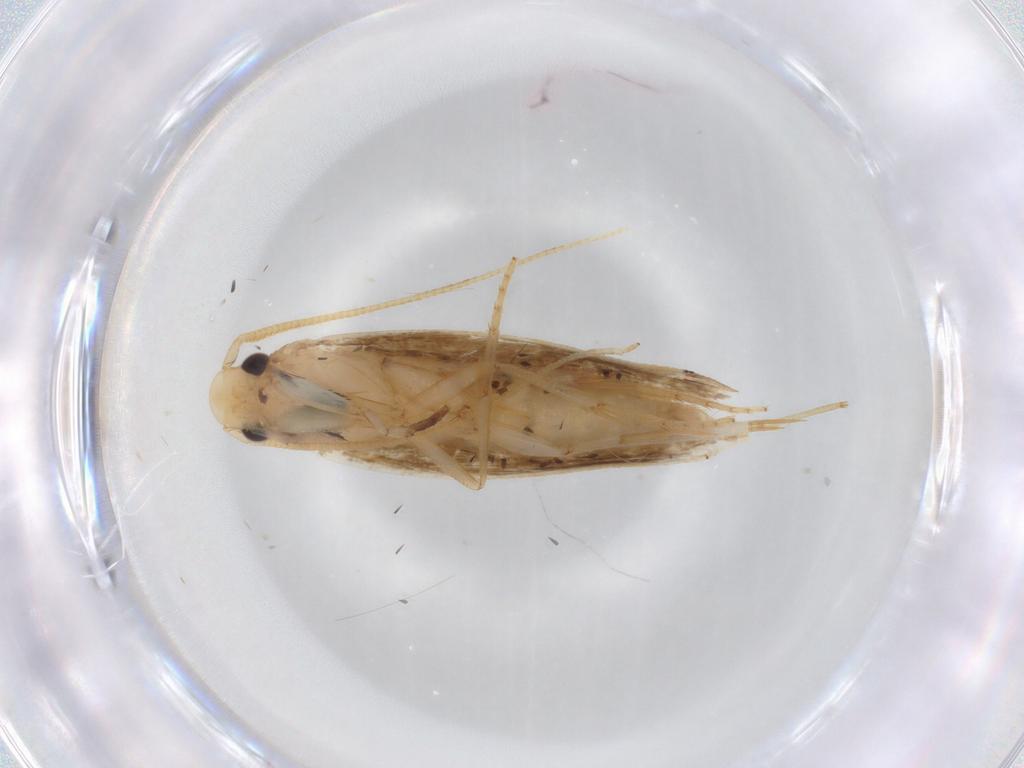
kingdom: Animalia
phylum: Arthropoda
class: Insecta
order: Lepidoptera
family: Tineidae
